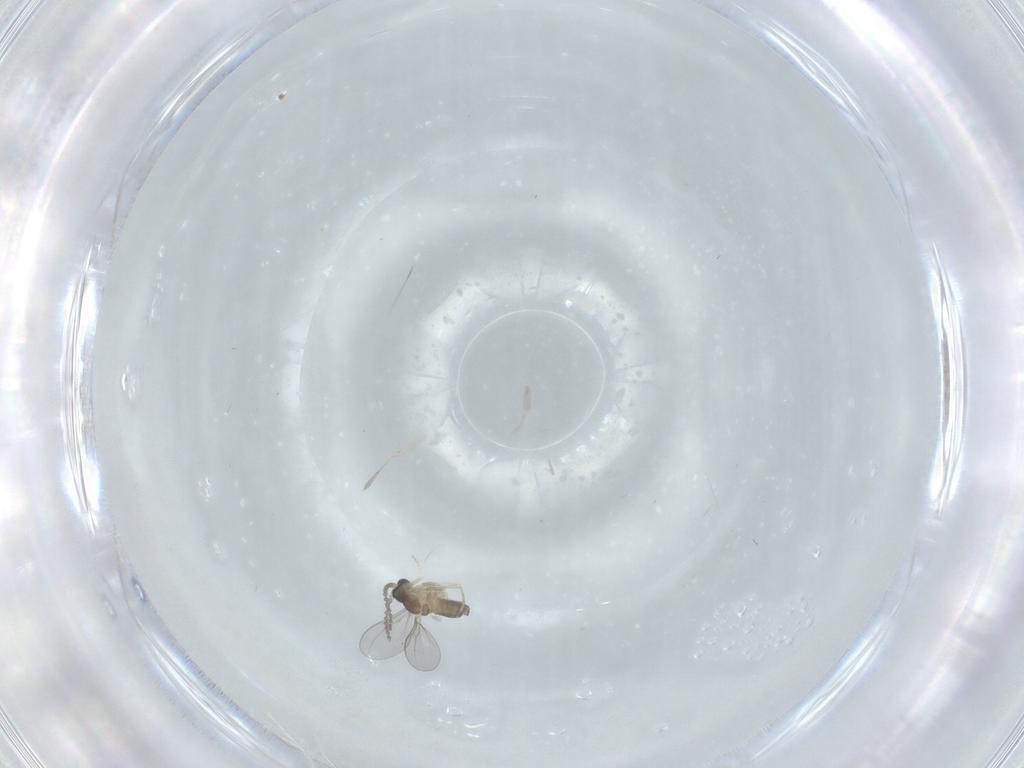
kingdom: Animalia
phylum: Arthropoda
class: Insecta
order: Diptera
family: Cecidomyiidae
